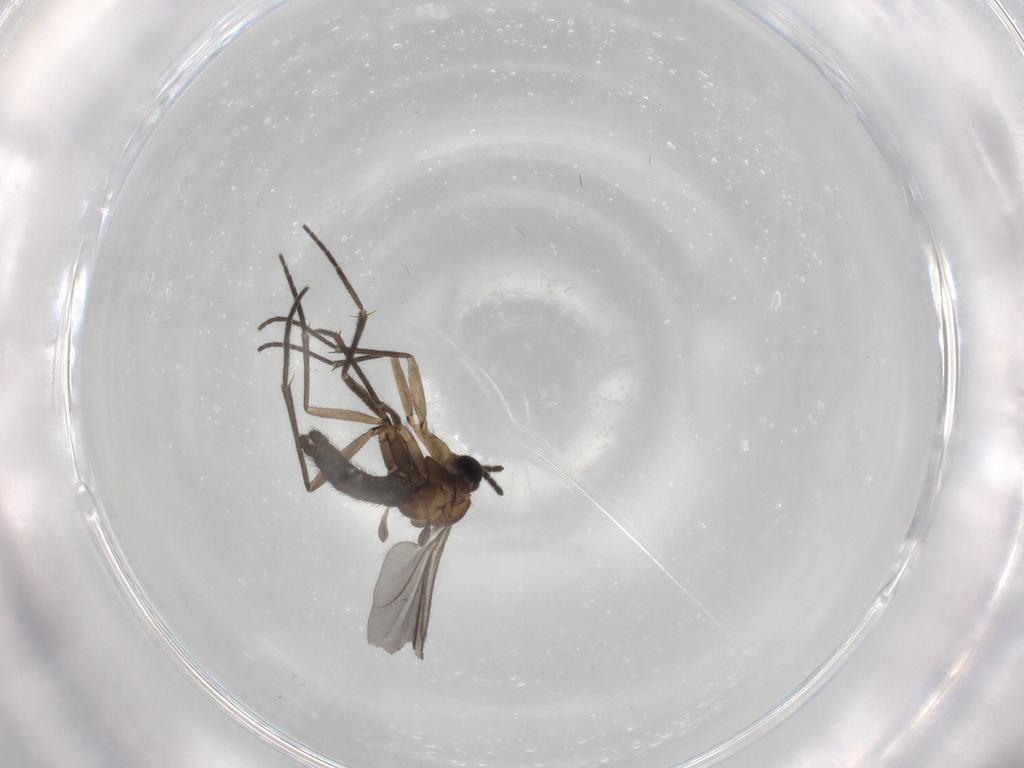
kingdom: Animalia
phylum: Arthropoda
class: Insecta
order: Diptera
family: Sciaridae
